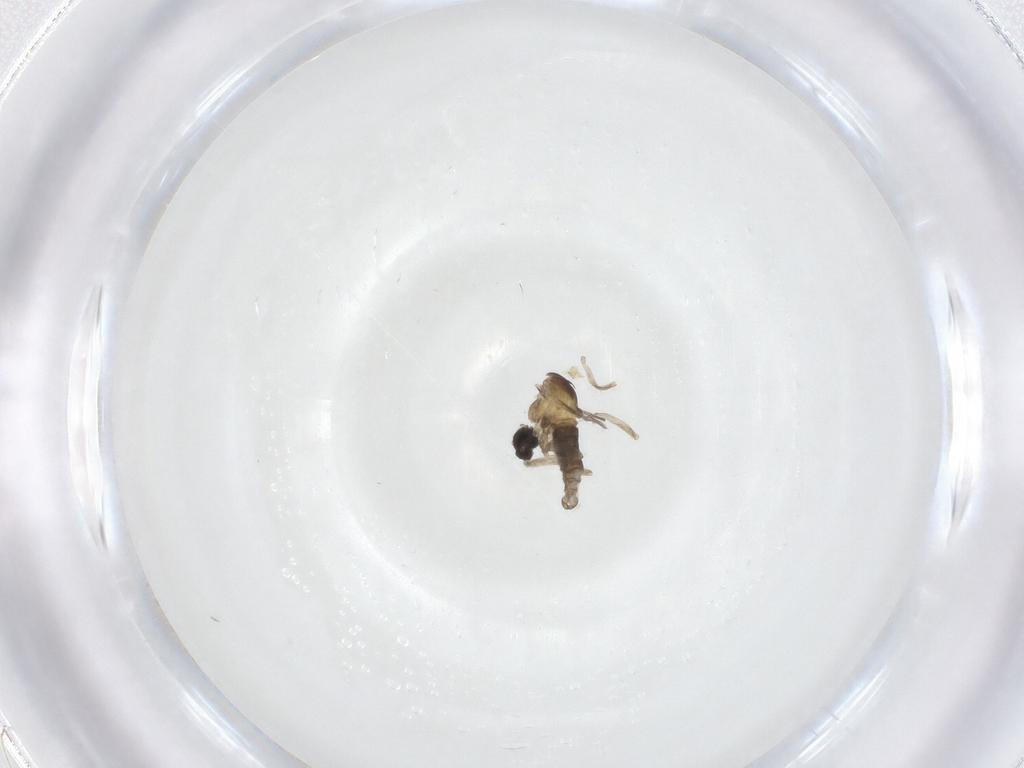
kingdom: Animalia
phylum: Arthropoda
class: Insecta
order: Diptera
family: Cecidomyiidae
